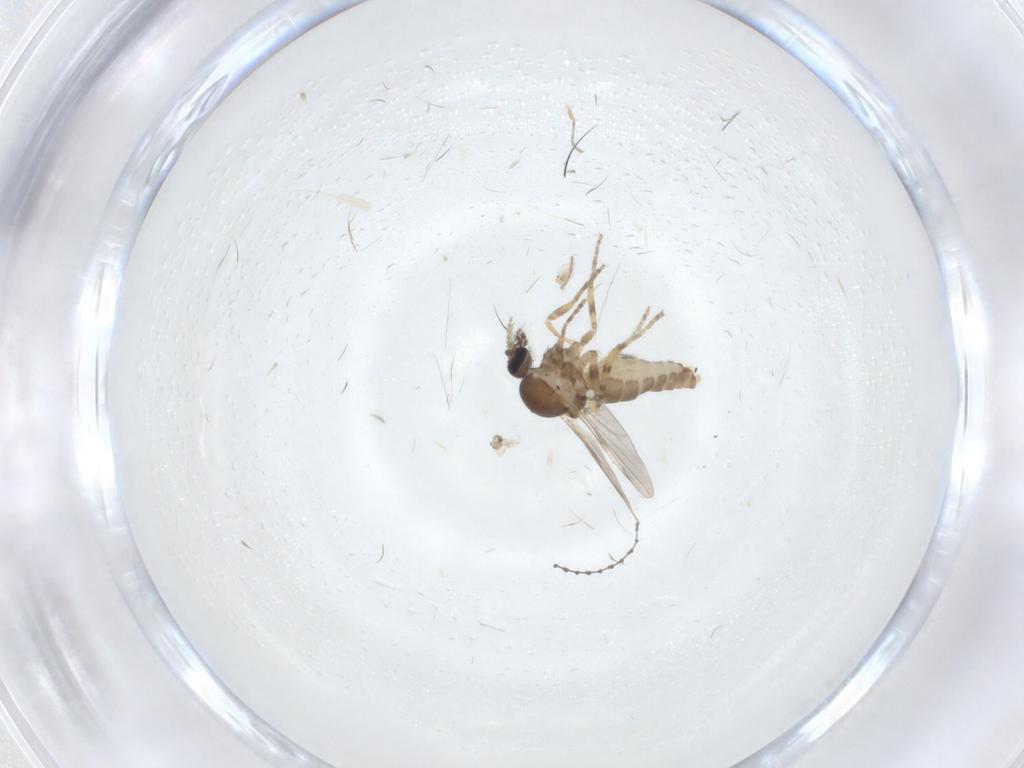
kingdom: Animalia
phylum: Arthropoda
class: Insecta
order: Diptera
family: Ceratopogonidae
